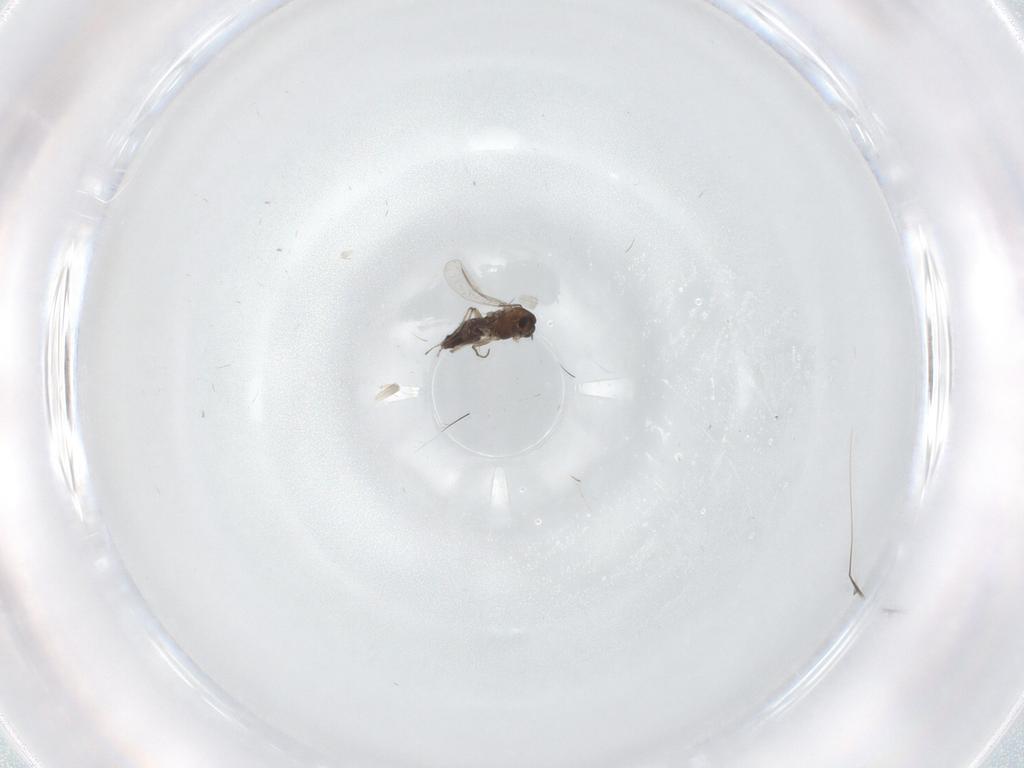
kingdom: Animalia
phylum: Arthropoda
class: Insecta
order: Diptera
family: Chironomidae
